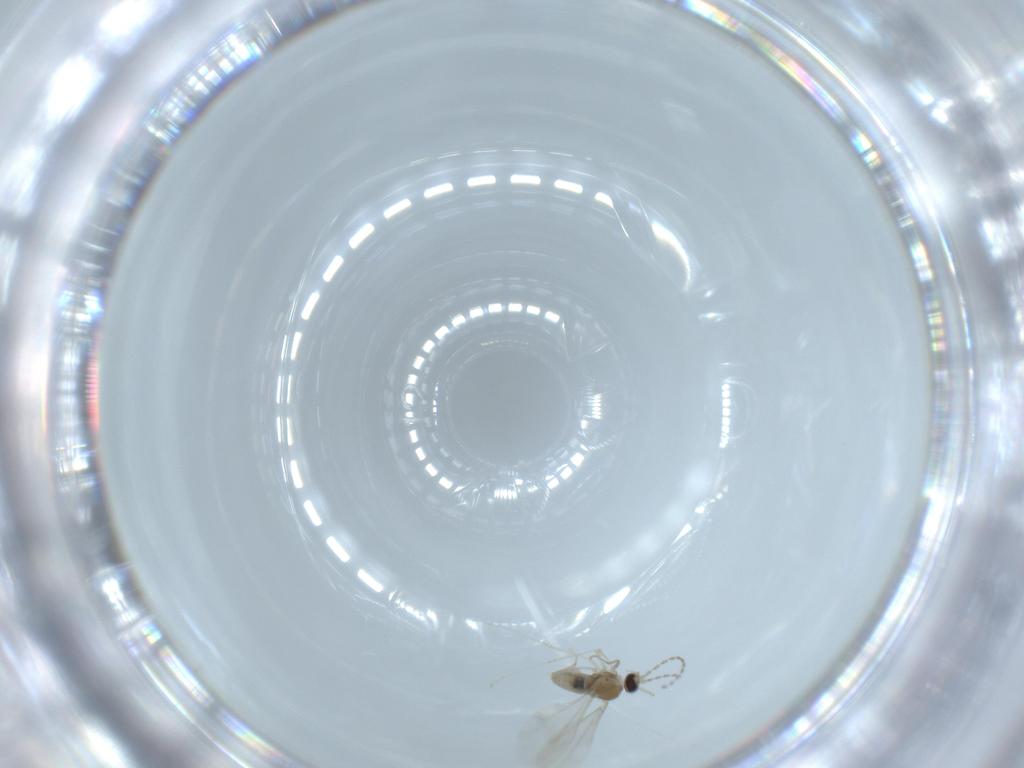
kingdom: Animalia
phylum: Arthropoda
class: Insecta
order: Diptera
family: Cecidomyiidae
